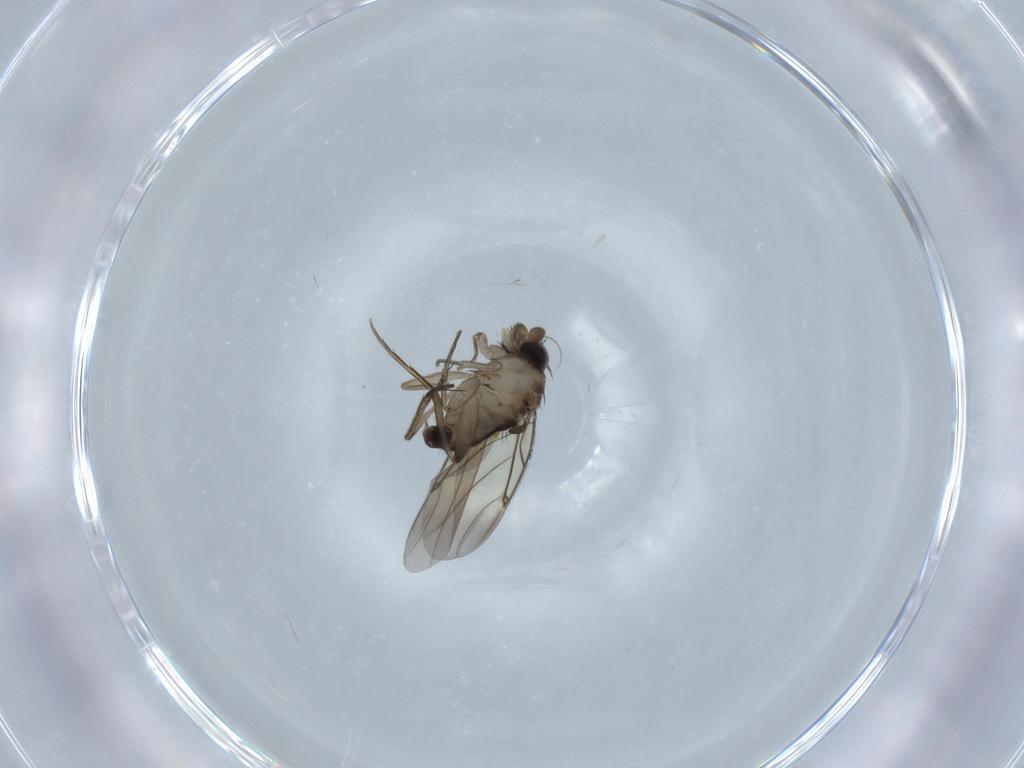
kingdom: Animalia
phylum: Arthropoda
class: Insecta
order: Diptera
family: Phoridae
